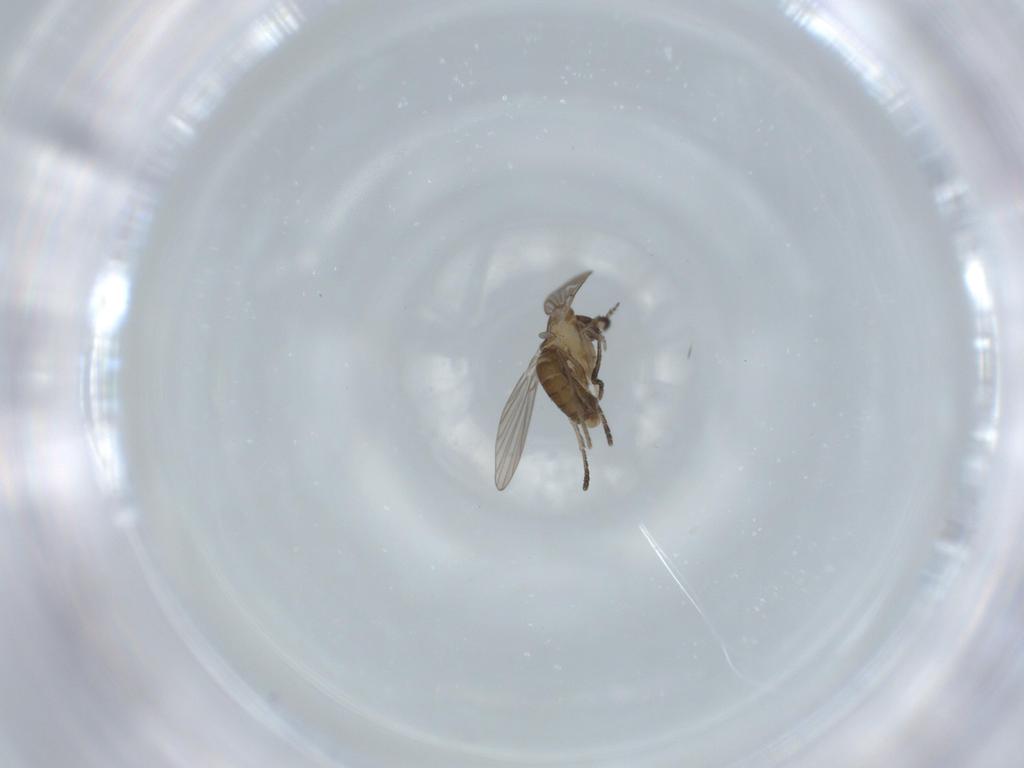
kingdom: Animalia
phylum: Arthropoda
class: Insecta
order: Diptera
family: Psychodidae
